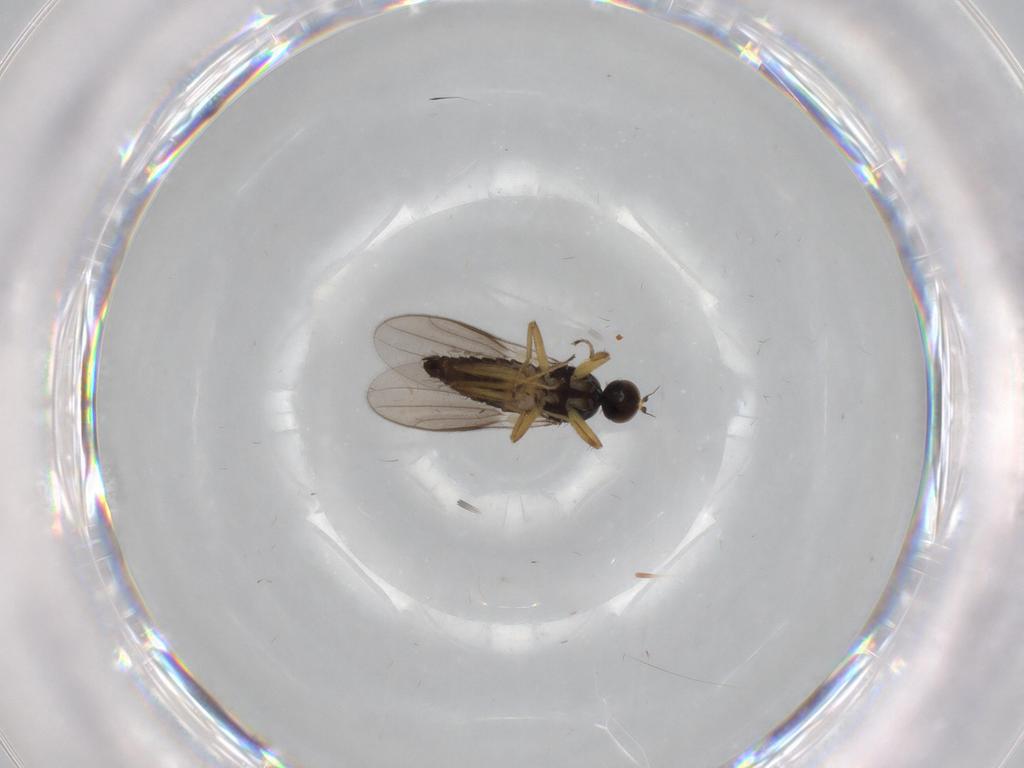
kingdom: Animalia
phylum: Arthropoda
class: Insecta
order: Diptera
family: Hybotidae
